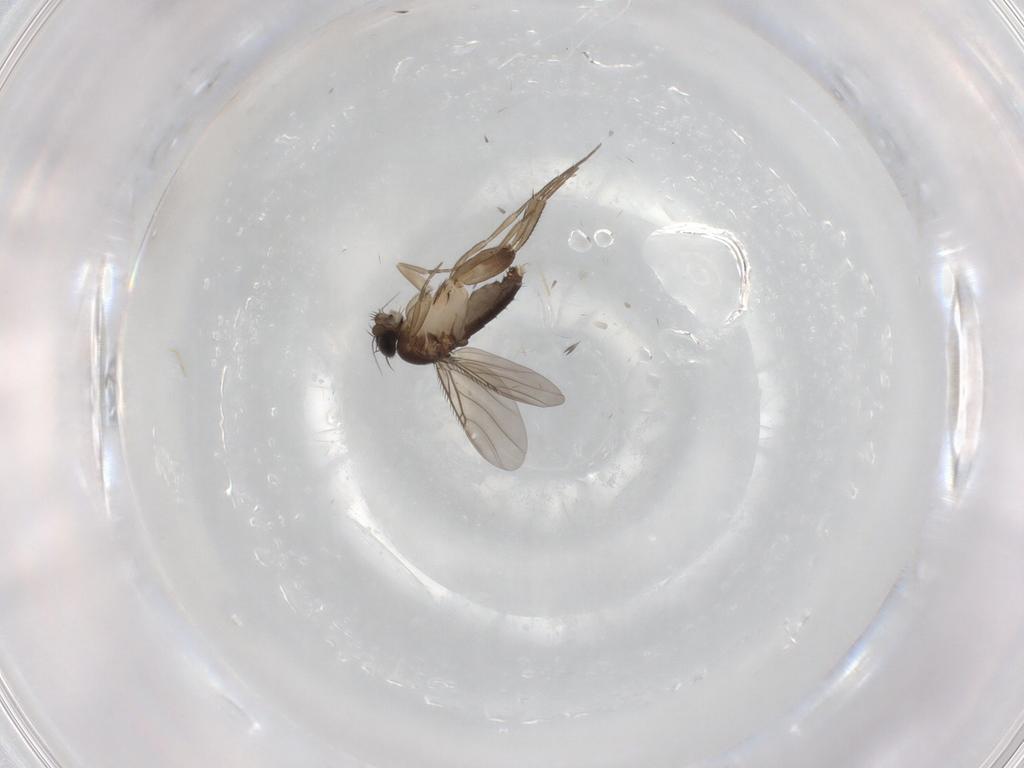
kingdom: Animalia
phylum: Arthropoda
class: Insecta
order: Diptera
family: Phoridae
